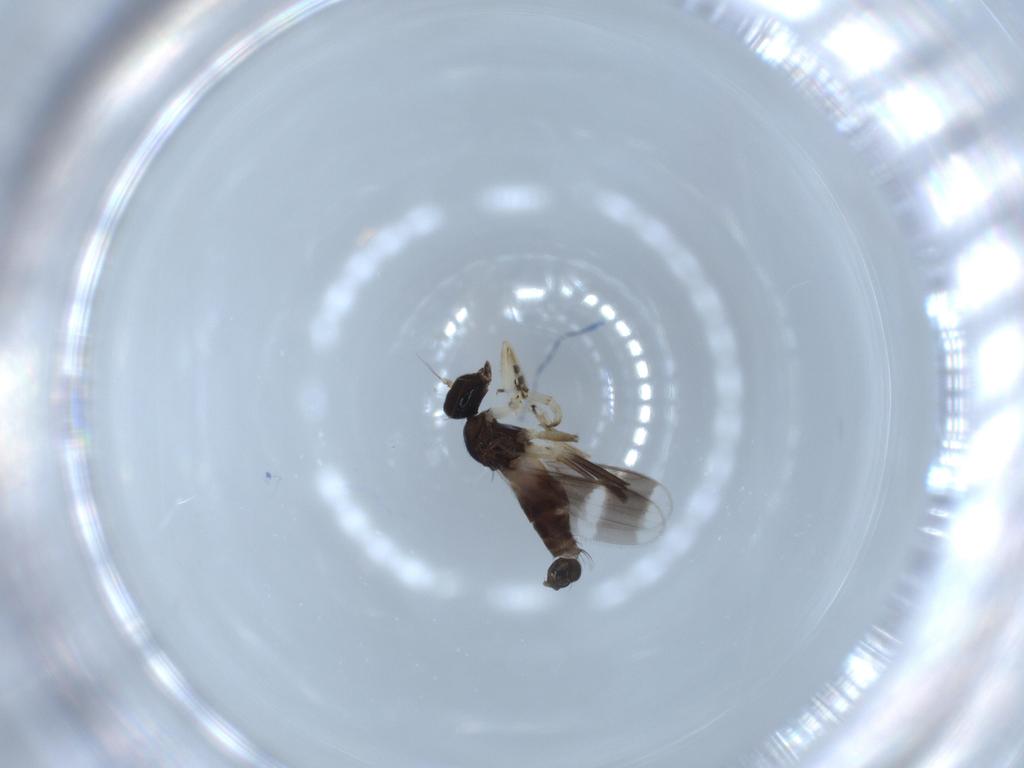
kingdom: Animalia
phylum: Arthropoda
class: Insecta
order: Diptera
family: Hybotidae
